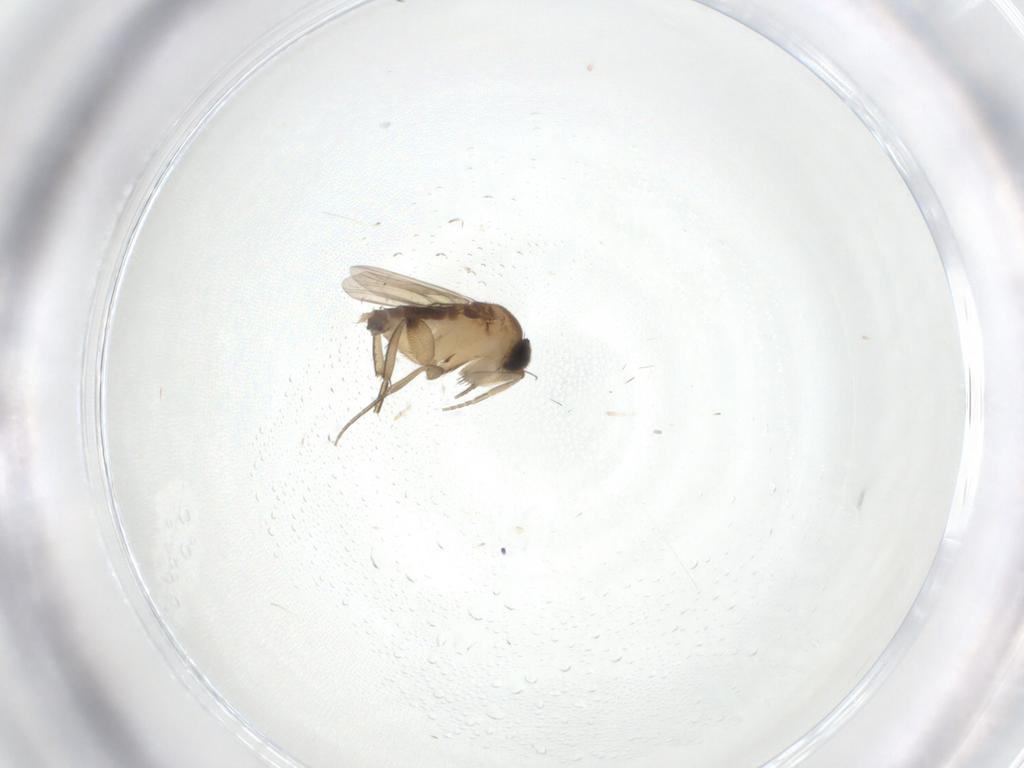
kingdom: Animalia
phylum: Arthropoda
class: Insecta
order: Diptera
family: Phoridae
